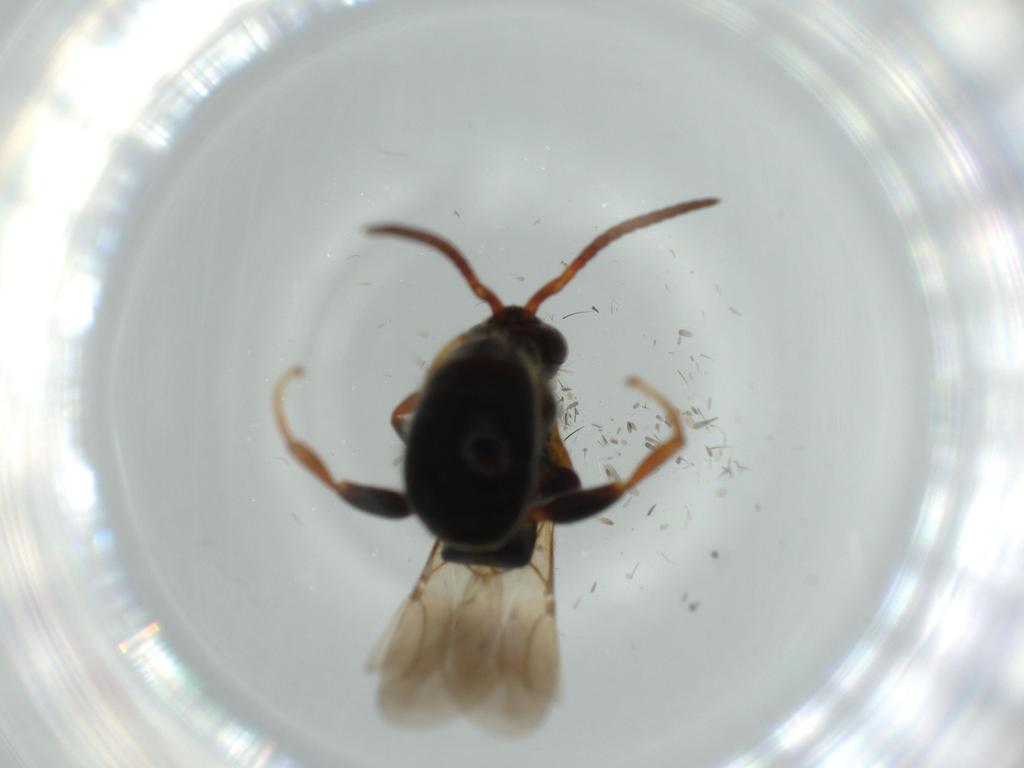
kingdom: Animalia
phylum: Arthropoda
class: Insecta
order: Hymenoptera
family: Bethylidae
